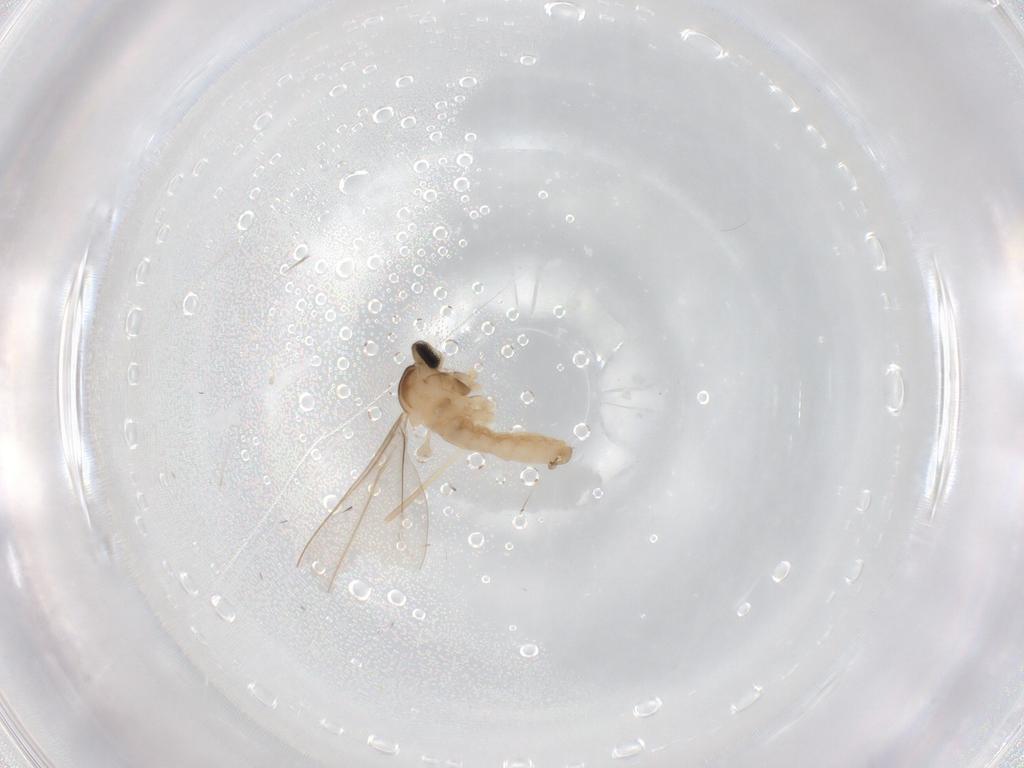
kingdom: Animalia
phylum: Arthropoda
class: Insecta
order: Diptera
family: Cecidomyiidae
